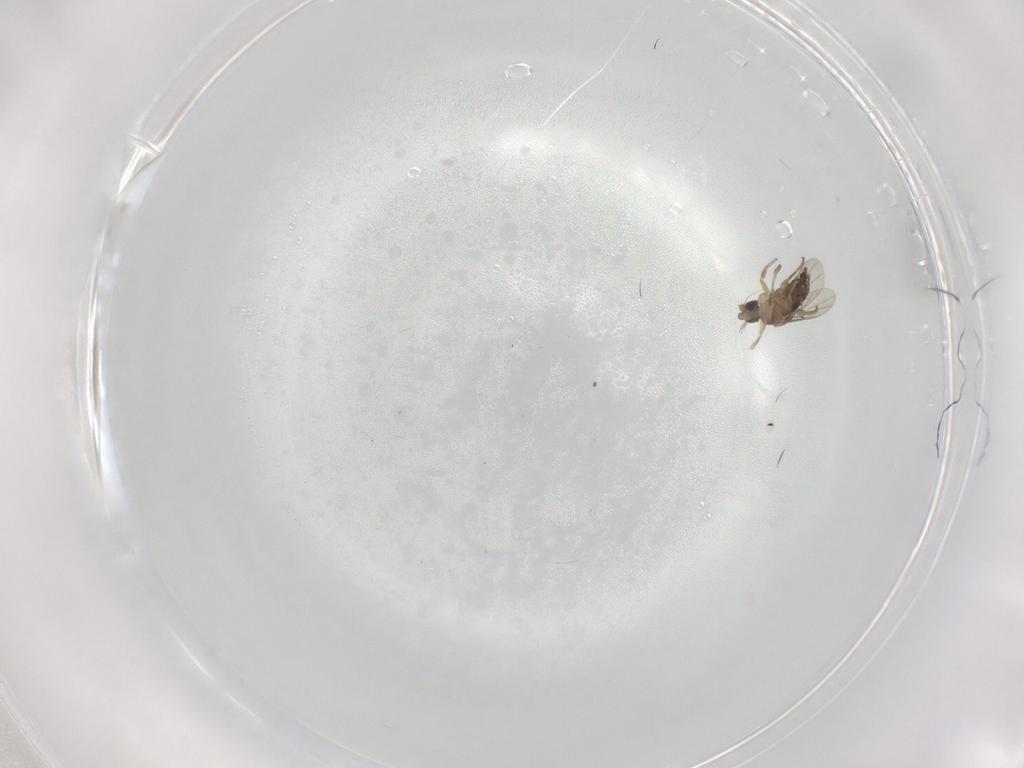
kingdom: Animalia
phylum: Arthropoda
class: Insecta
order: Diptera
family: Phoridae
